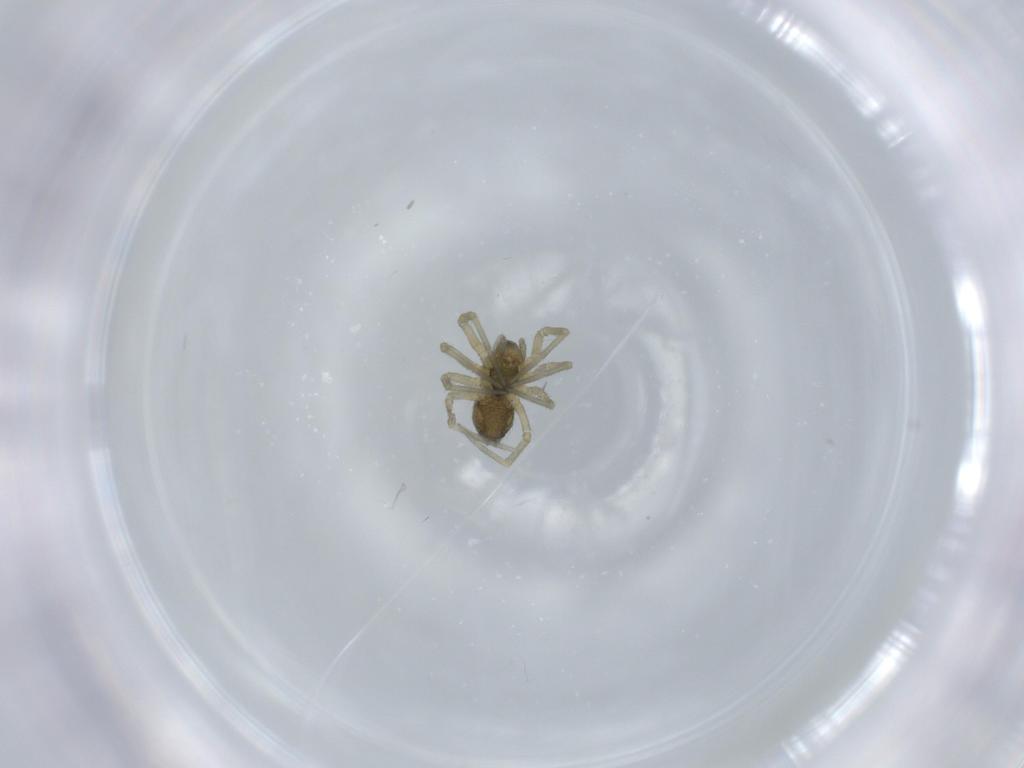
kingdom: Animalia
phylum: Arthropoda
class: Arachnida
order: Araneae
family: Linyphiidae
